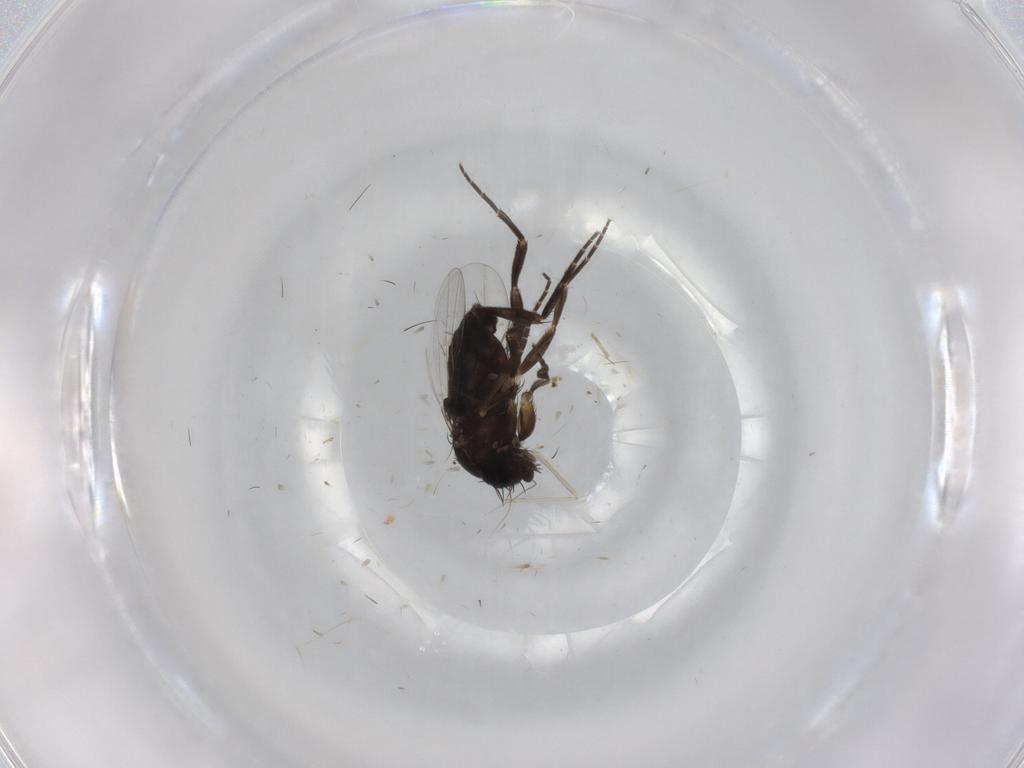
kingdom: Animalia
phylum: Arthropoda
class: Insecta
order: Diptera
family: Phoridae
